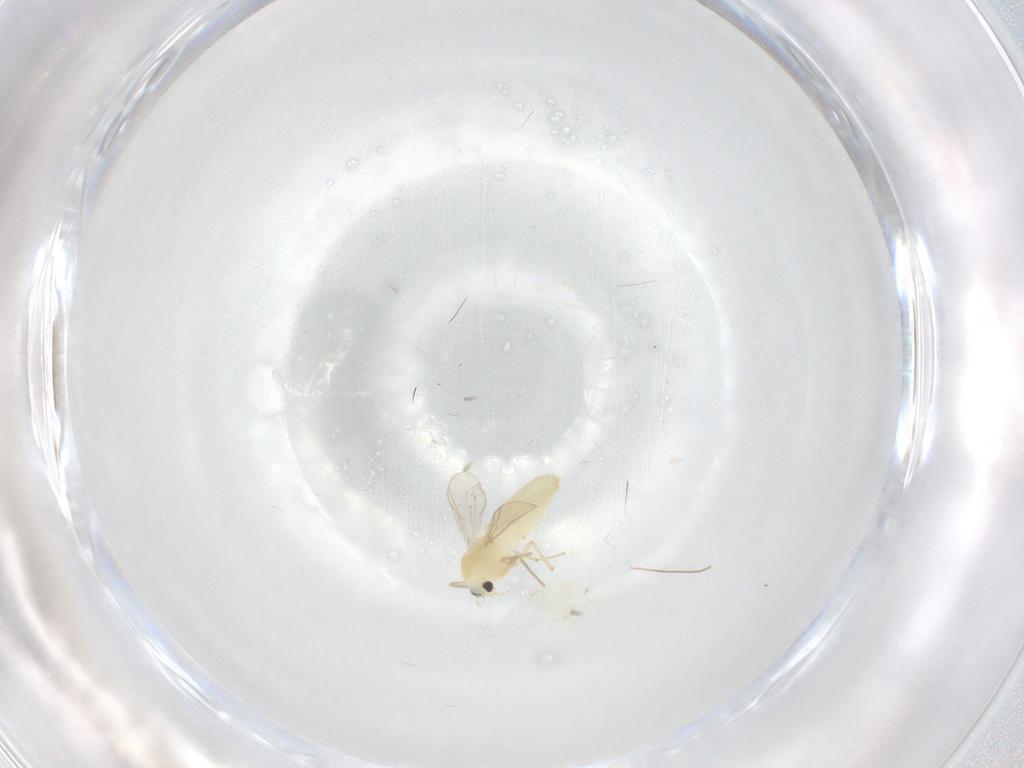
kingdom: Animalia
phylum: Arthropoda
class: Insecta
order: Diptera
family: Chironomidae
